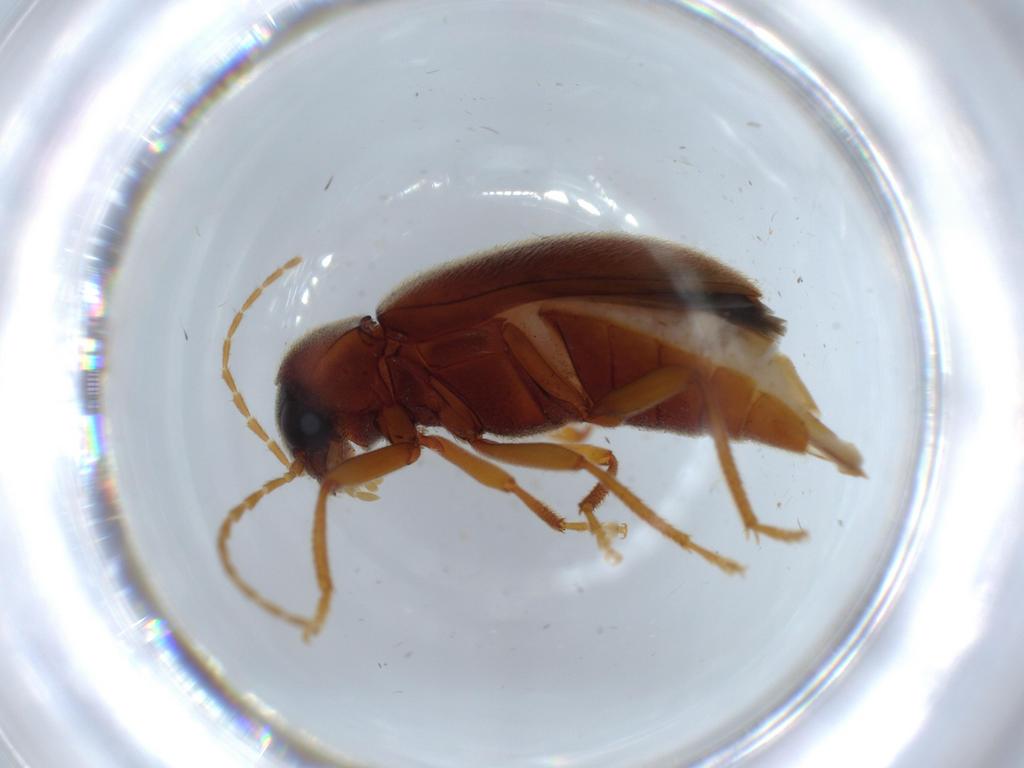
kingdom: Animalia
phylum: Arthropoda
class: Insecta
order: Coleoptera
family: Ptilodactylidae
